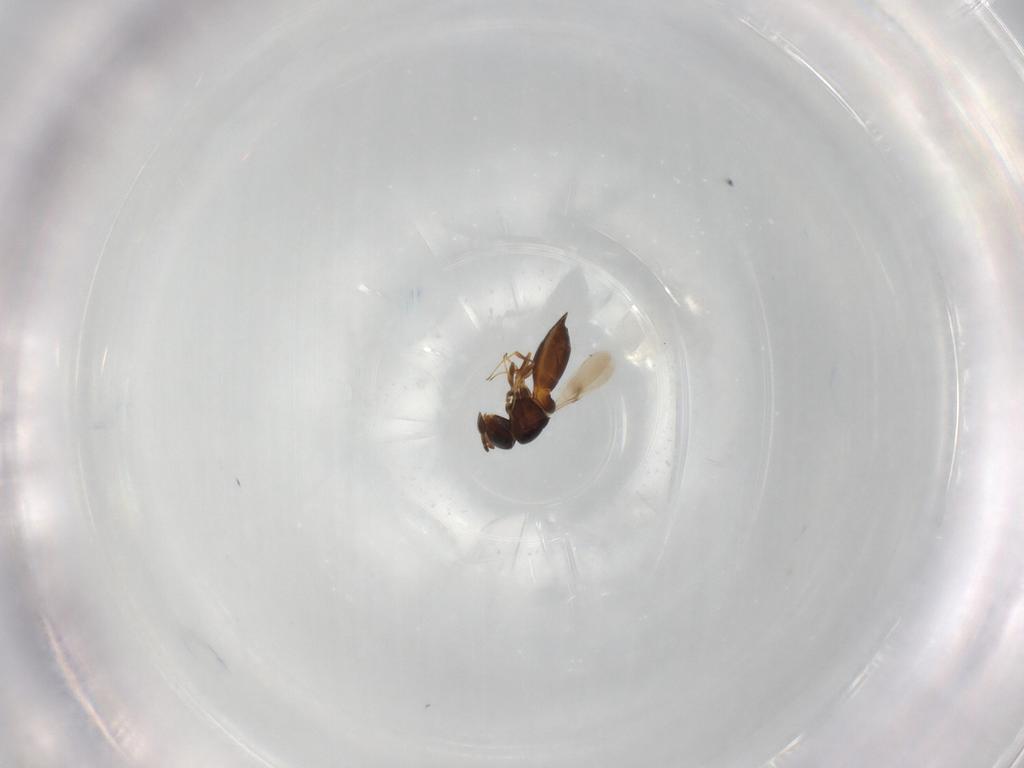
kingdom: Animalia
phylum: Arthropoda
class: Insecta
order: Hymenoptera
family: Scelionidae
